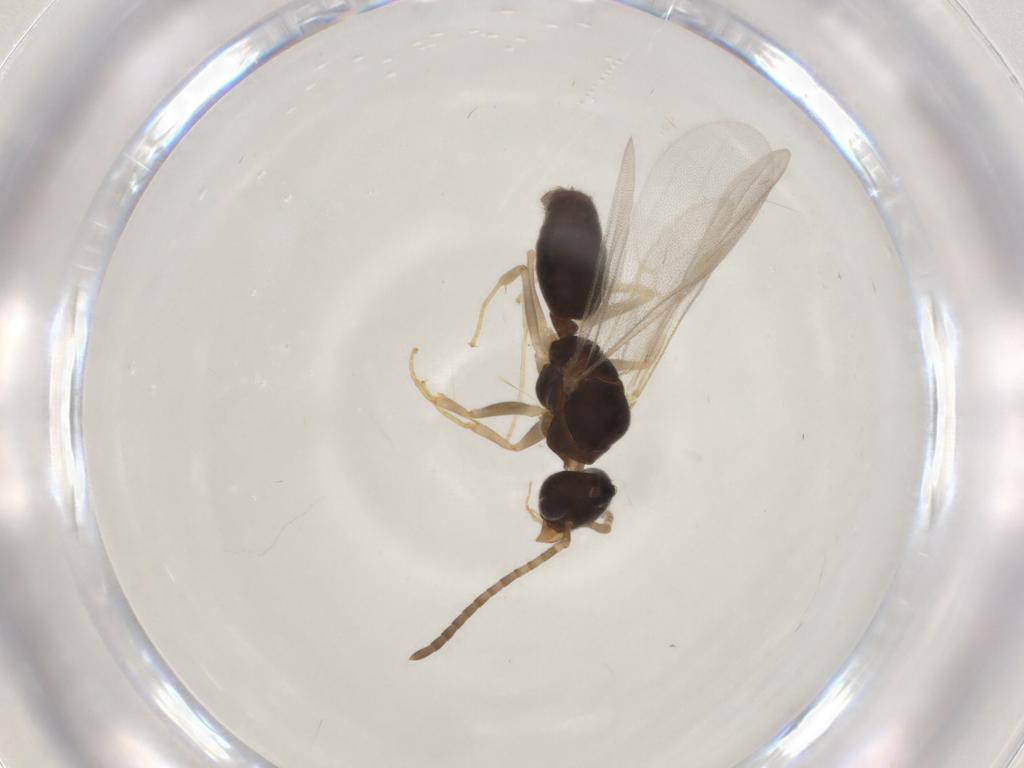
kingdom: Animalia
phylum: Arthropoda
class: Insecta
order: Hymenoptera
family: Formicidae
